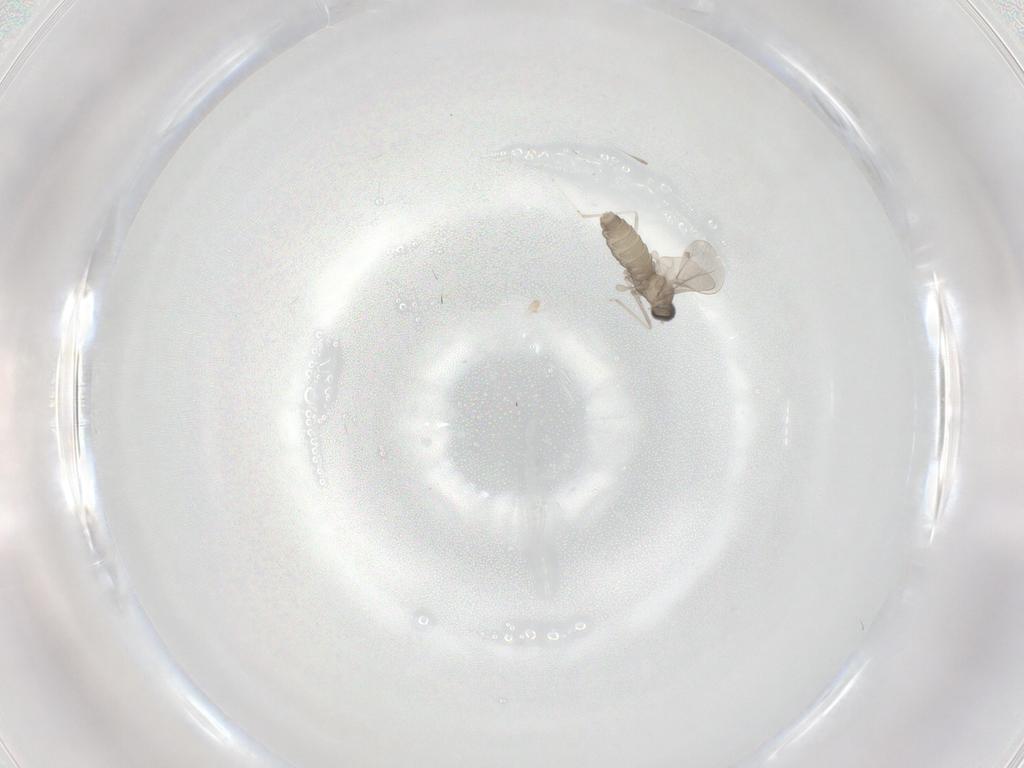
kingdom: Animalia
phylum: Arthropoda
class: Insecta
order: Diptera
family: Cecidomyiidae
